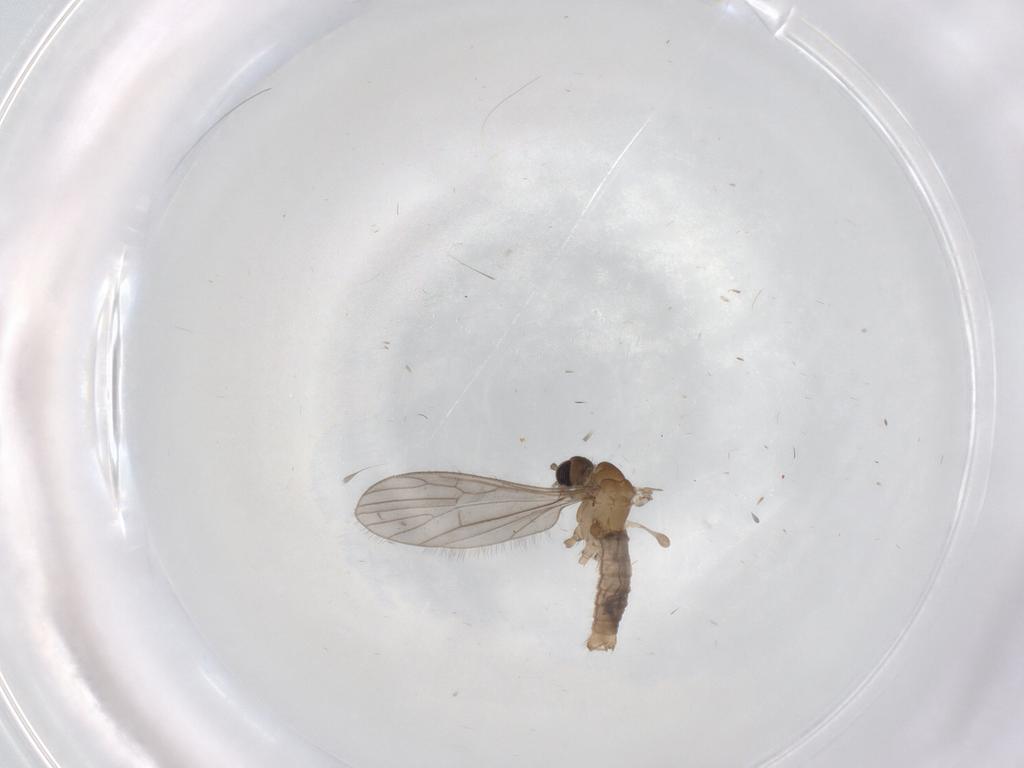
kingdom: Animalia
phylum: Arthropoda
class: Insecta
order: Diptera
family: Limoniidae
